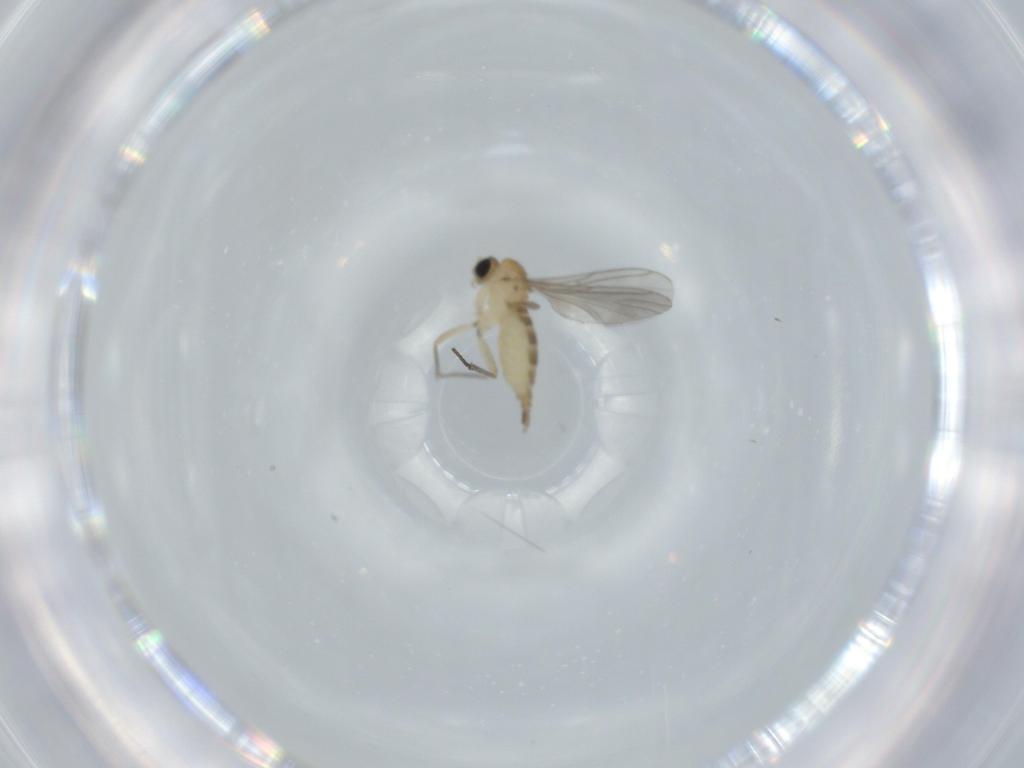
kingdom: Animalia
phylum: Arthropoda
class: Insecta
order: Diptera
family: Sciaridae
